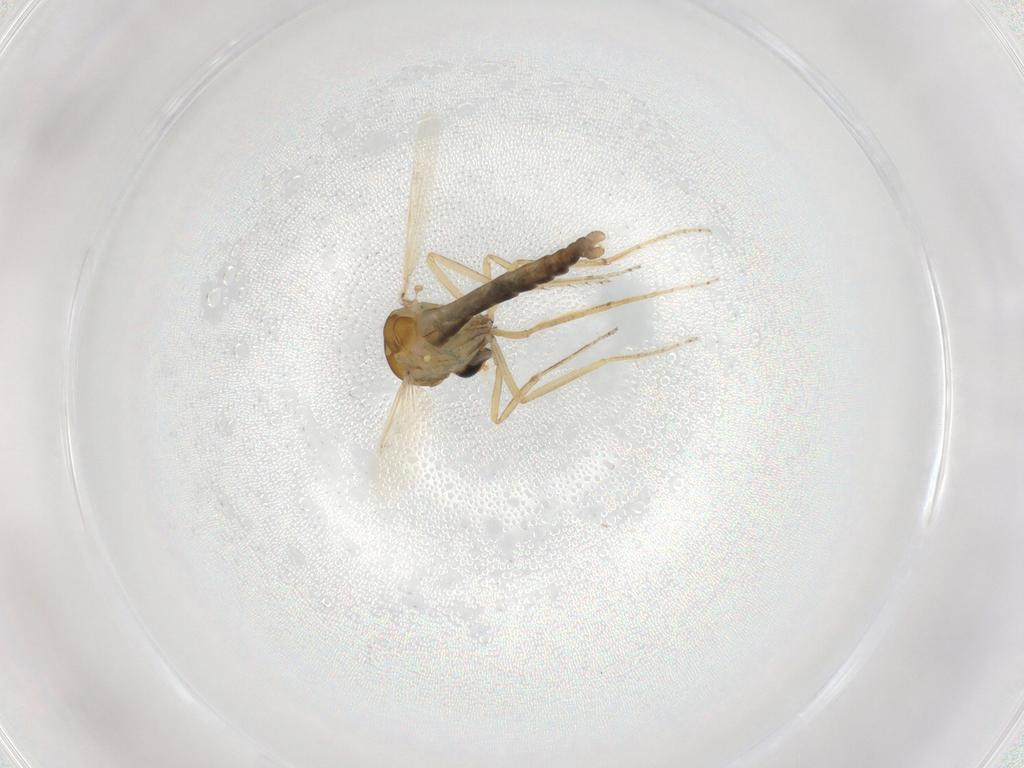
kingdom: Animalia
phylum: Arthropoda
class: Insecta
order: Diptera
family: Ceratopogonidae
